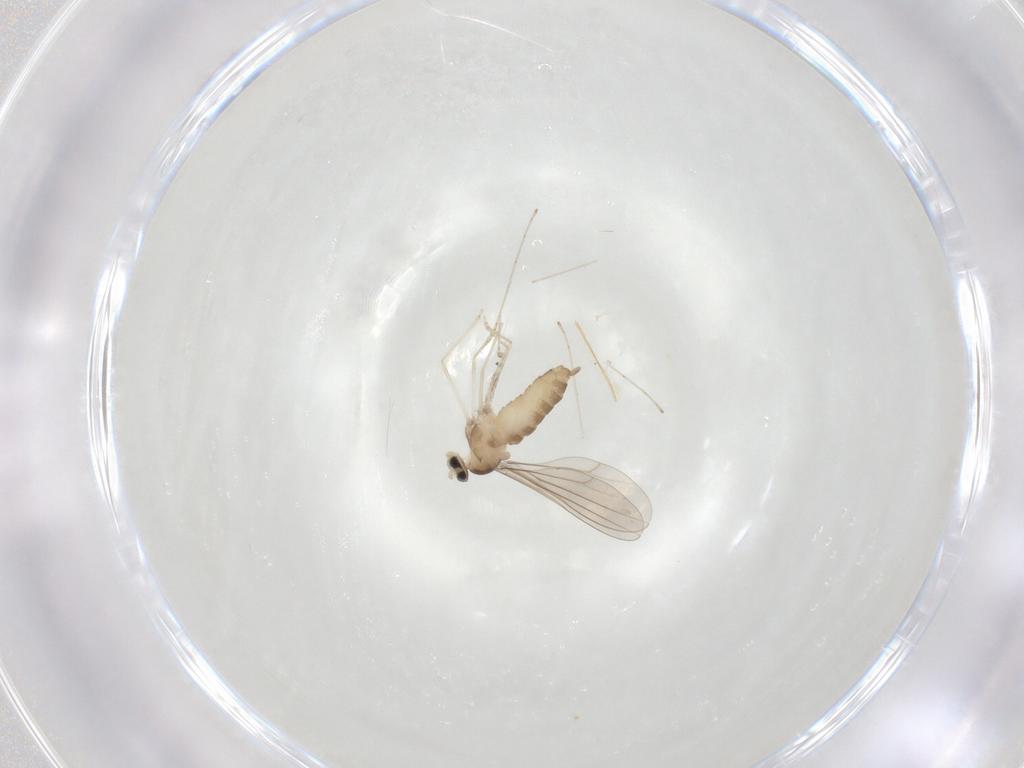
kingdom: Animalia
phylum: Arthropoda
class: Insecta
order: Diptera
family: Cecidomyiidae
